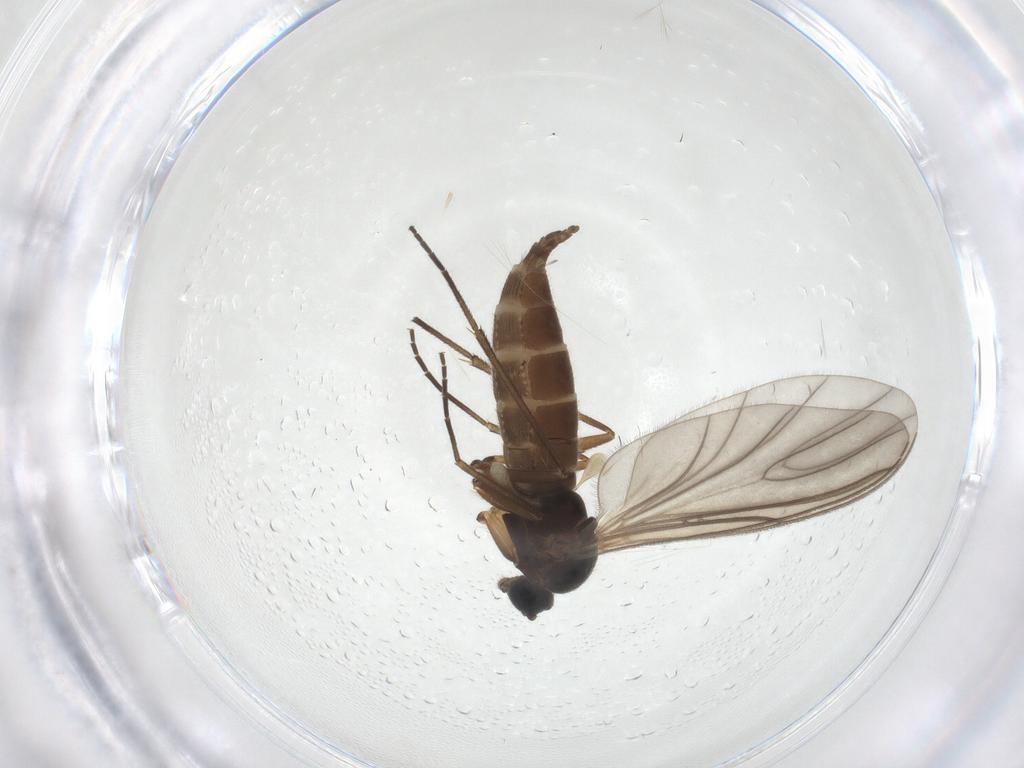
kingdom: Animalia
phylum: Arthropoda
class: Insecta
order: Diptera
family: Sciaridae
